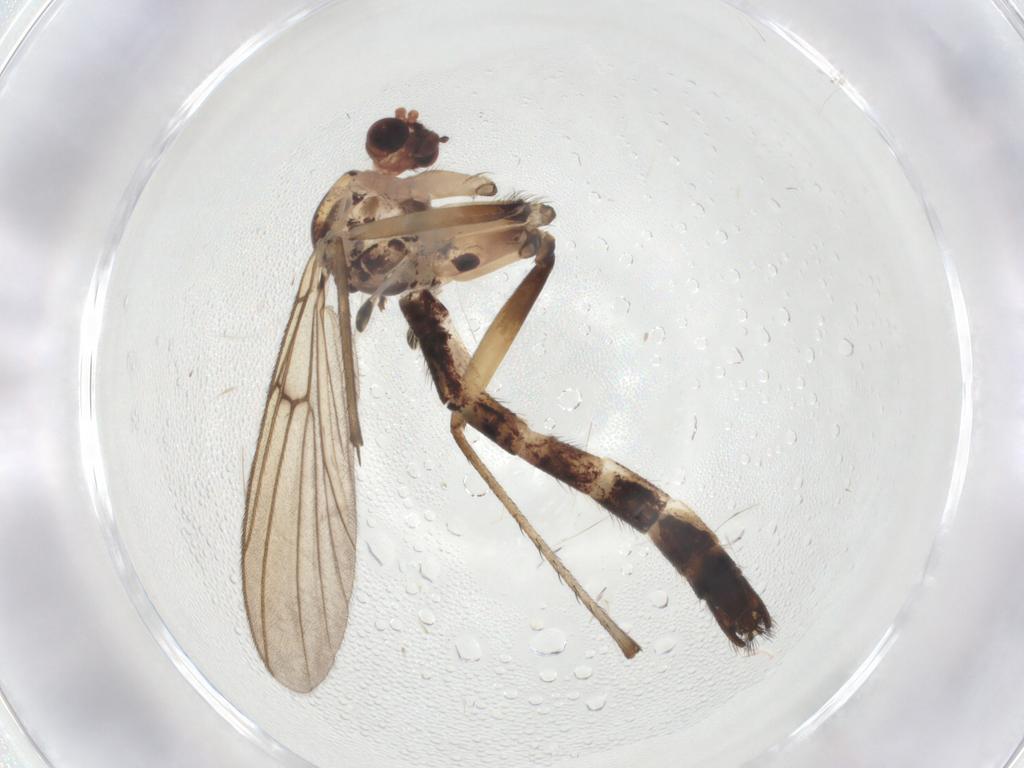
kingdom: Animalia
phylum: Arthropoda
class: Insecta
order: Diptera
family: Mycetophilidae
